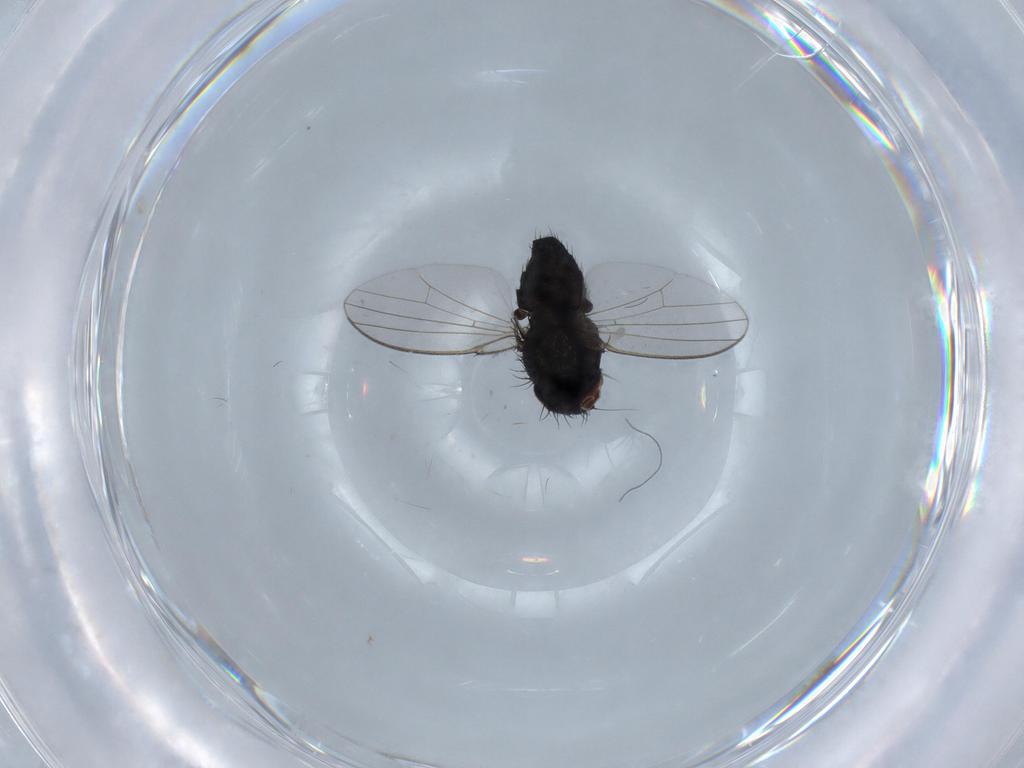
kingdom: Animalia
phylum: Arthropoda
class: Insecta
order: Diptera
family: Milichiidae
